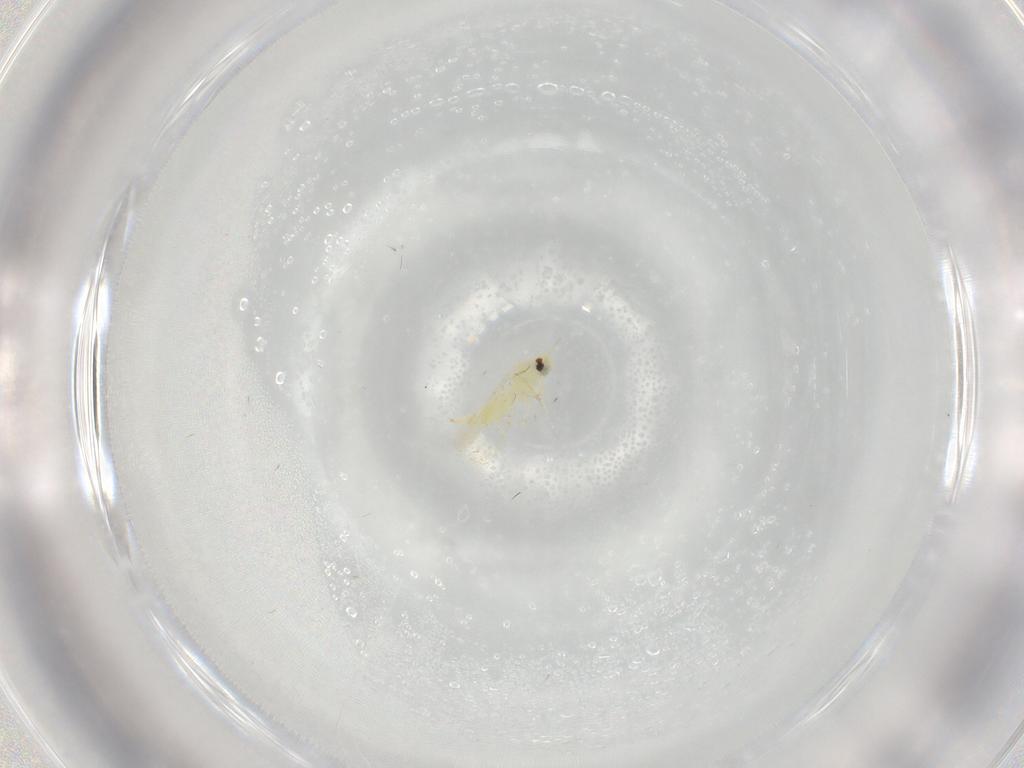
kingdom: Animalia
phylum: Arthropoda
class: Insecta
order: Hemiptera
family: Aleyrodidae
